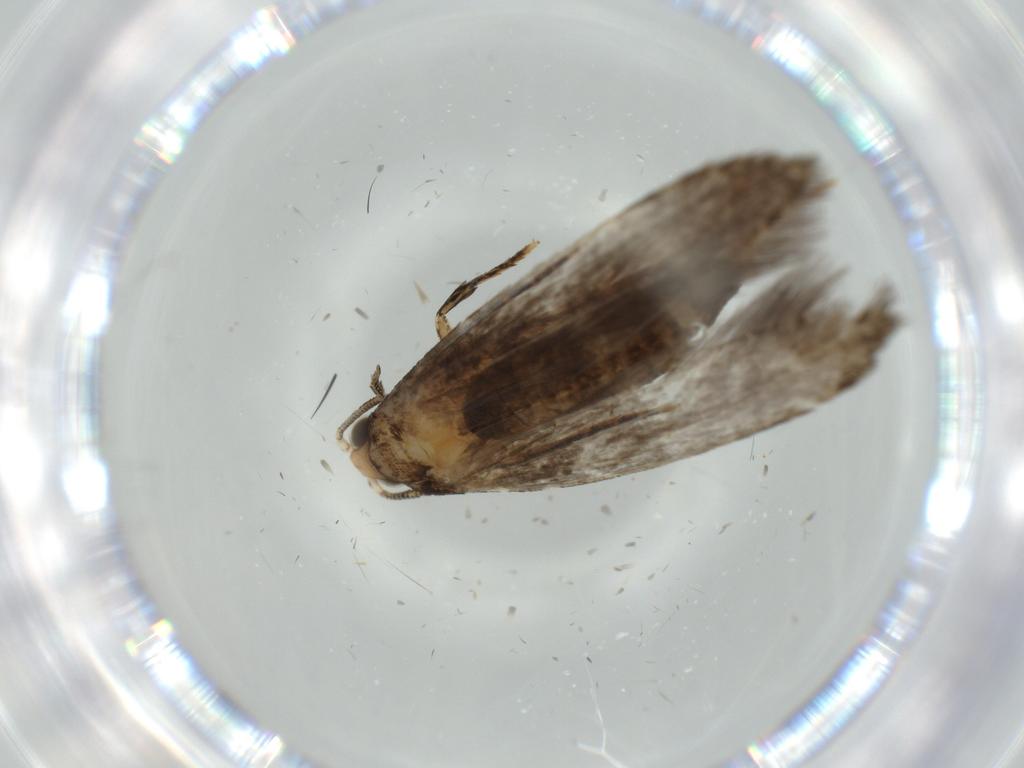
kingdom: Animalia
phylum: Arthropoda
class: Insecta
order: Lepidoptera
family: Tineidae
